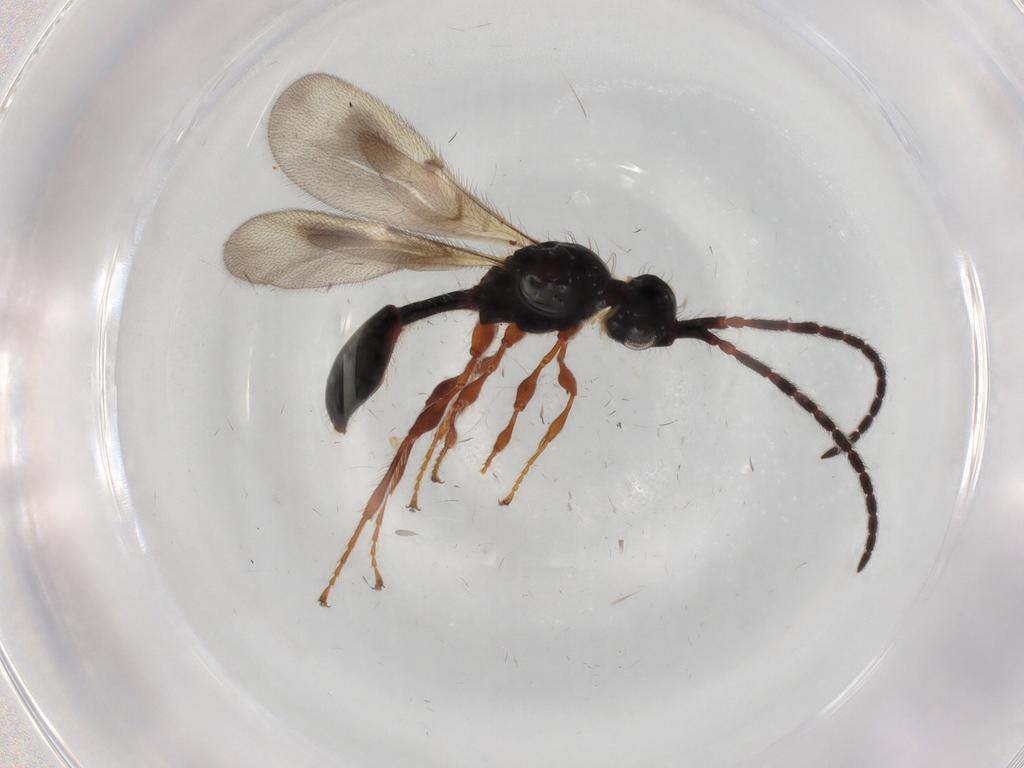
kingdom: Animalia
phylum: Arthropoda
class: Insecta
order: Hymenoptera
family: Diapriidae
